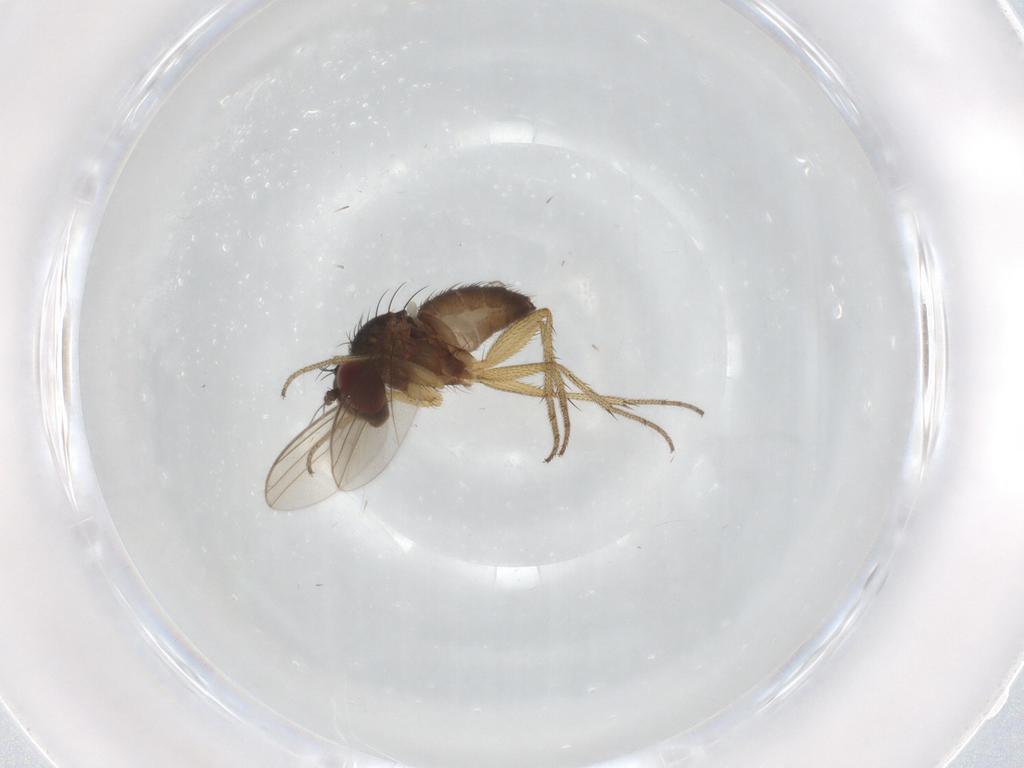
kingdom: Animalia
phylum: Arthropoda
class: Insecta
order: Diptera
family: Dolichopodidae
